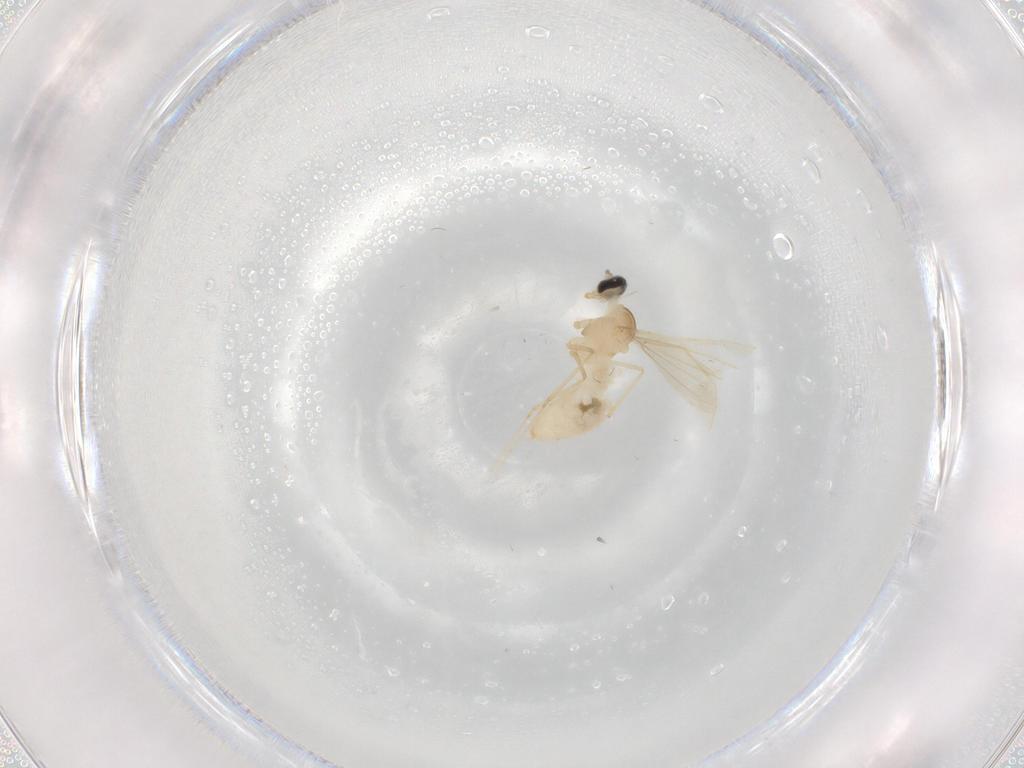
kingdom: Animalia
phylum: Arthropoda
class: Insecta
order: Diptera
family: Cecidomyiidae
